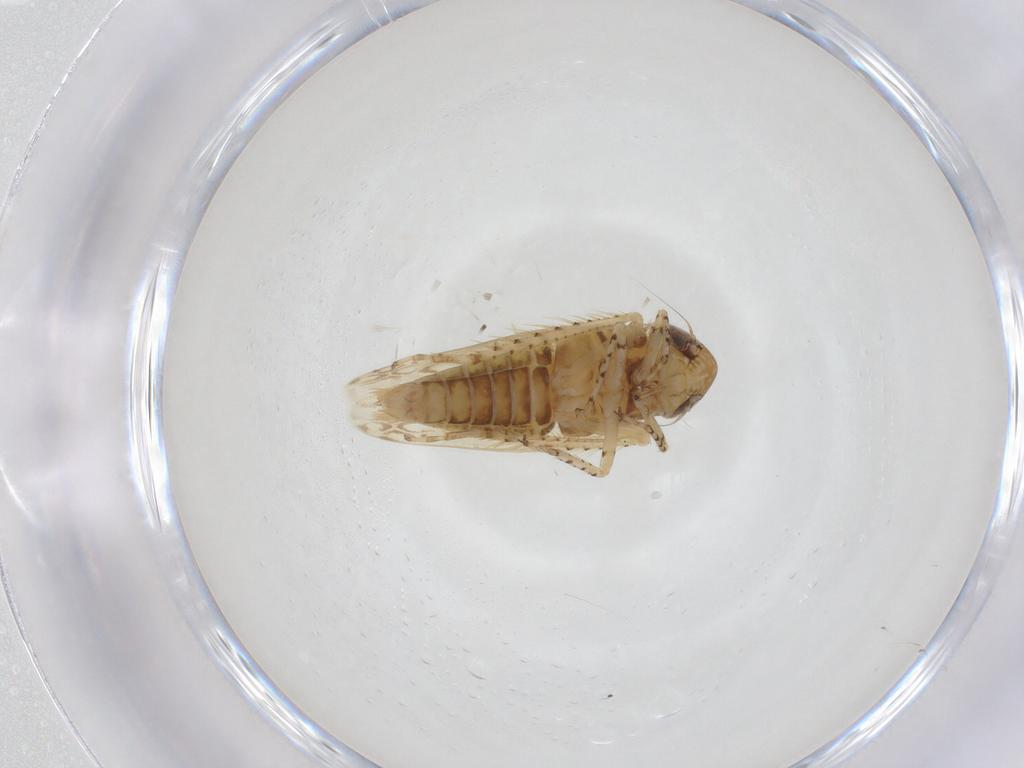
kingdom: Animalia
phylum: Arthropoda
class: Insecta
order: Hemiptera
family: Cicadellidae
